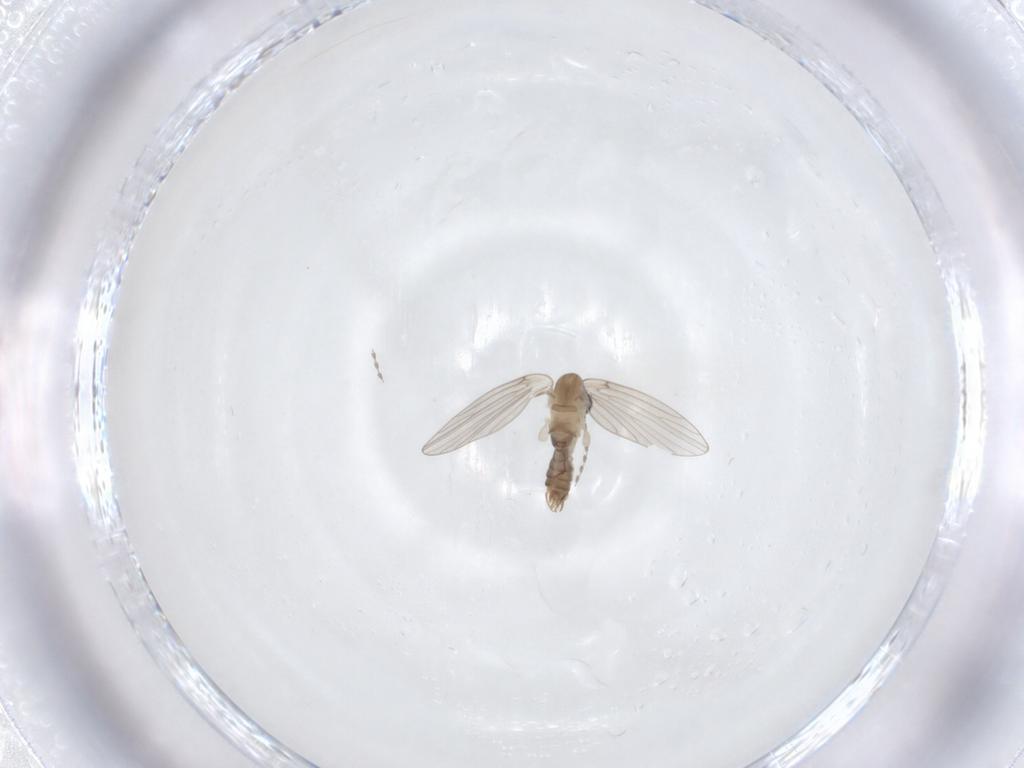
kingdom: Animalia
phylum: Arthropoda
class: Insecta
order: Diptera
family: Psychodidae
